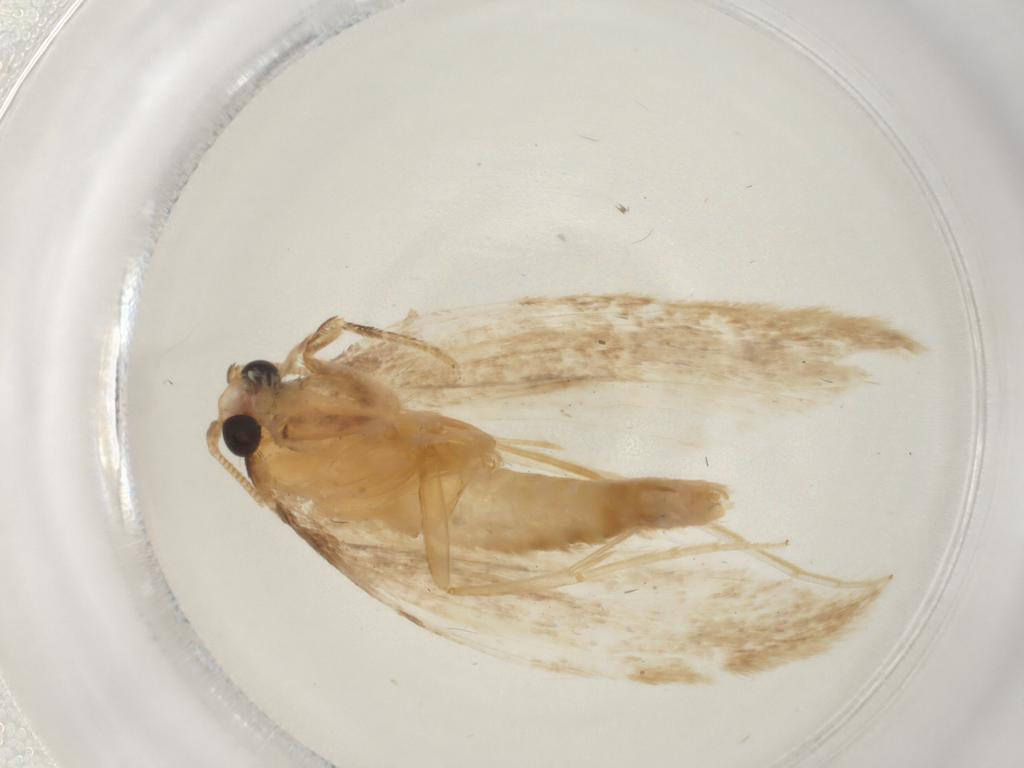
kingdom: Animalia
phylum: Arthropoda
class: Insecta
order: Lepidoptera
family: Tineidae
